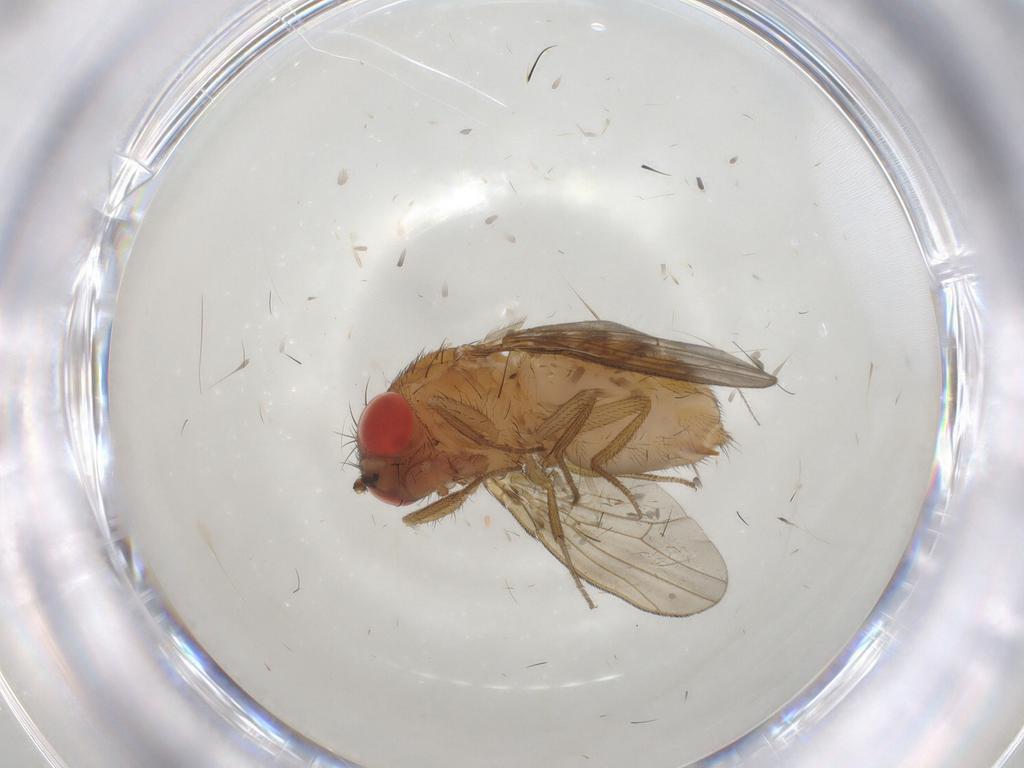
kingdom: Animalia
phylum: Arthropoda
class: Insecta
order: Diptera
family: Drosophilidae
